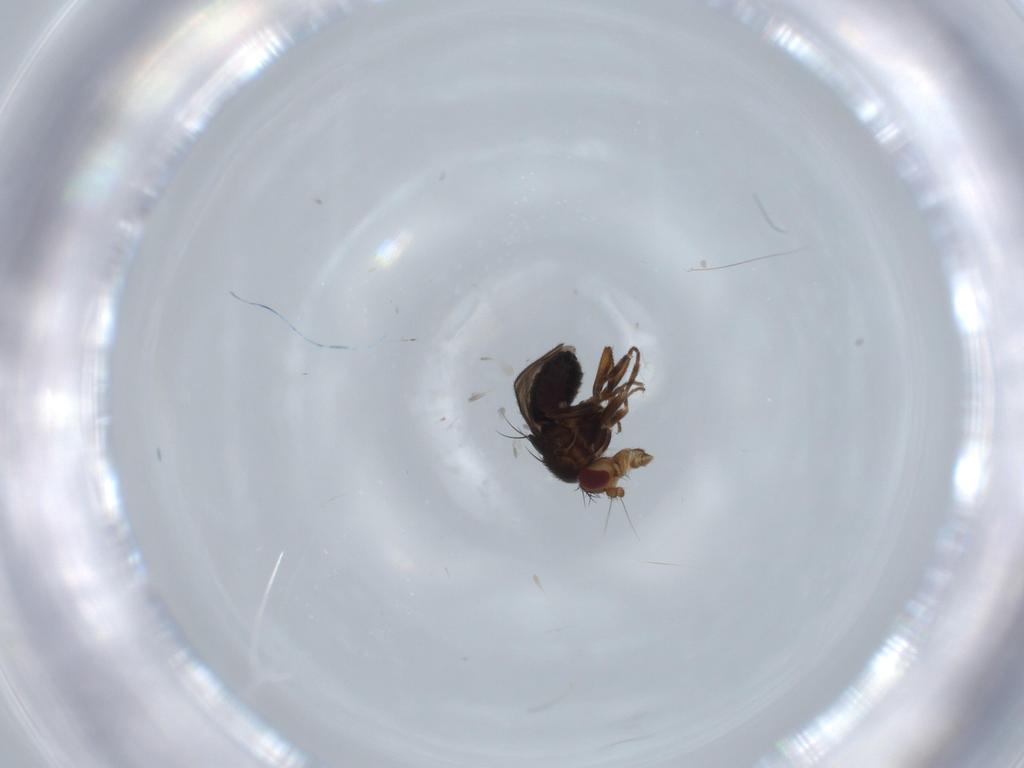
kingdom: Animalia
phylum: Arthropoda
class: Insecta
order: Diptera
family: Sphaeroceridae
